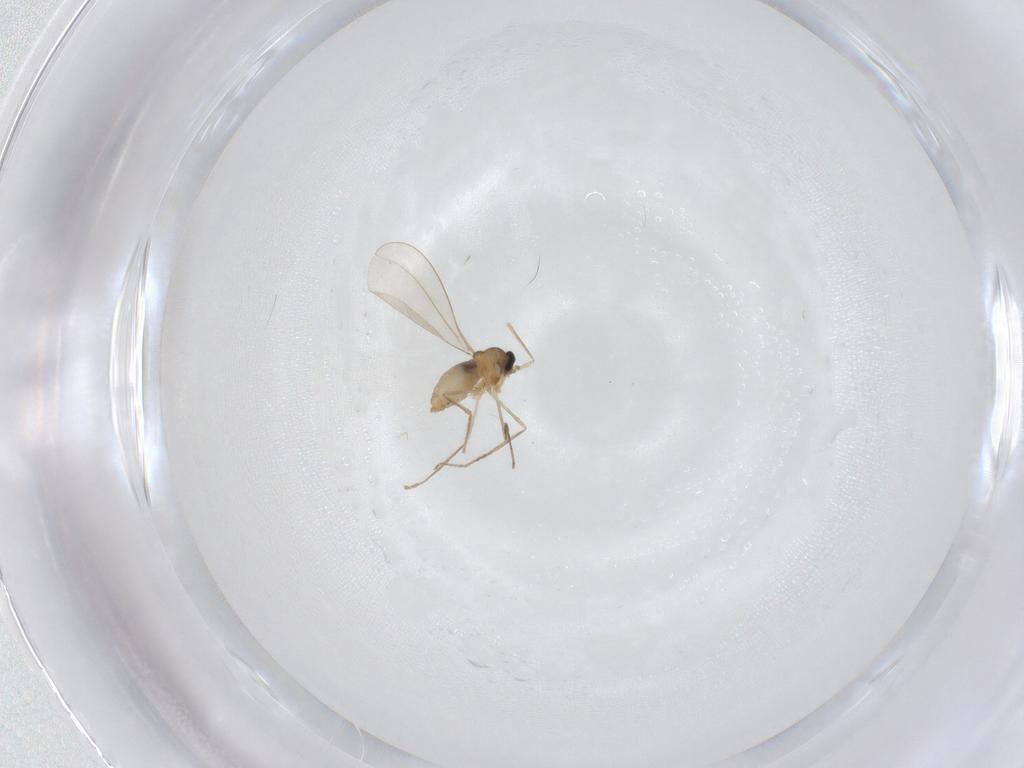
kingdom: Animalia
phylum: Arthropoda
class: Insecta
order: Diptera
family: Cecidomyiidae
